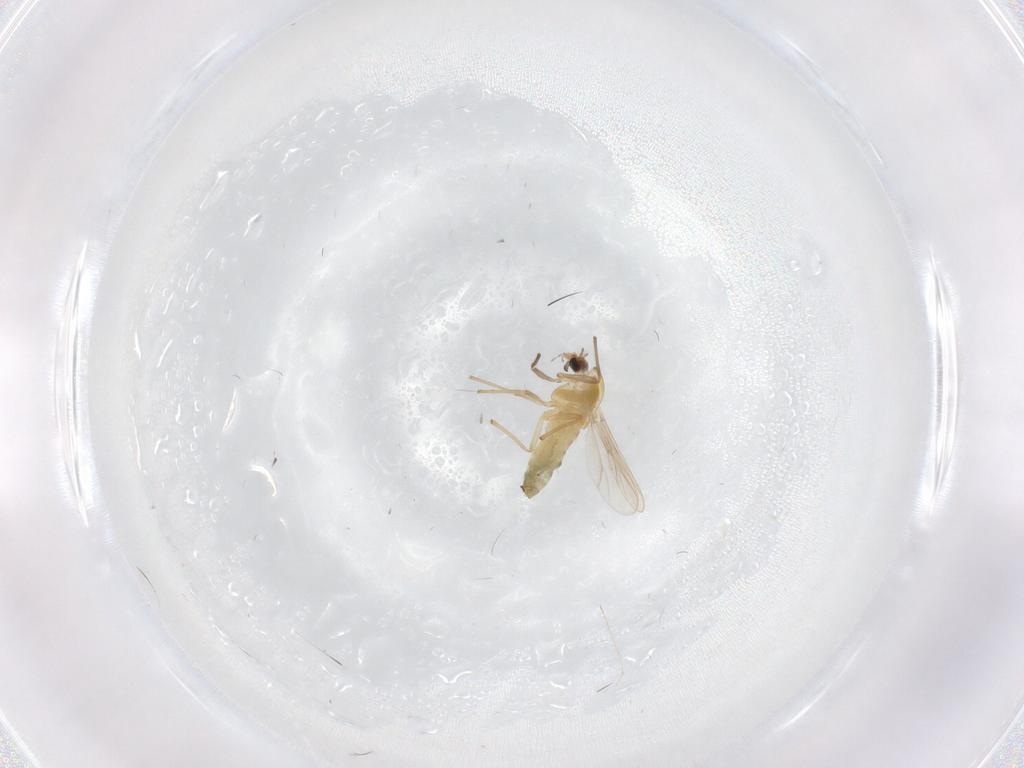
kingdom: Animalia
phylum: Arthropoda
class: Insecta
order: Diptera
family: Chironomidae
